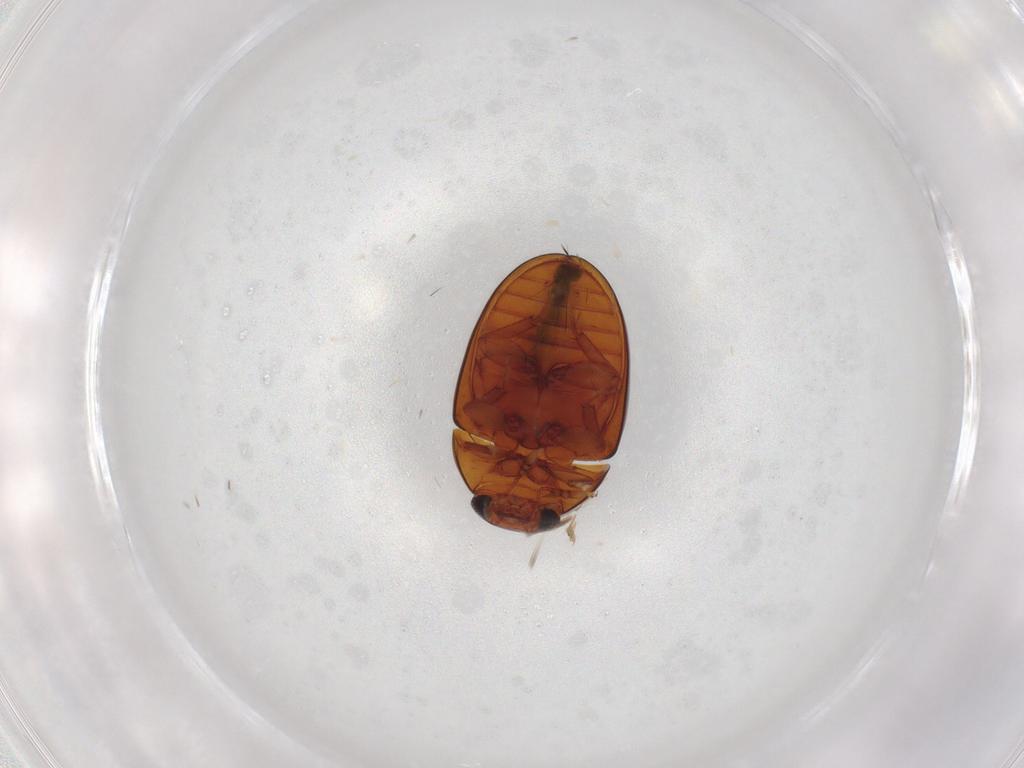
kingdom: Animalia
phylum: Arthropoda
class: Insecta
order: Coleoptera
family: Phalacridae
